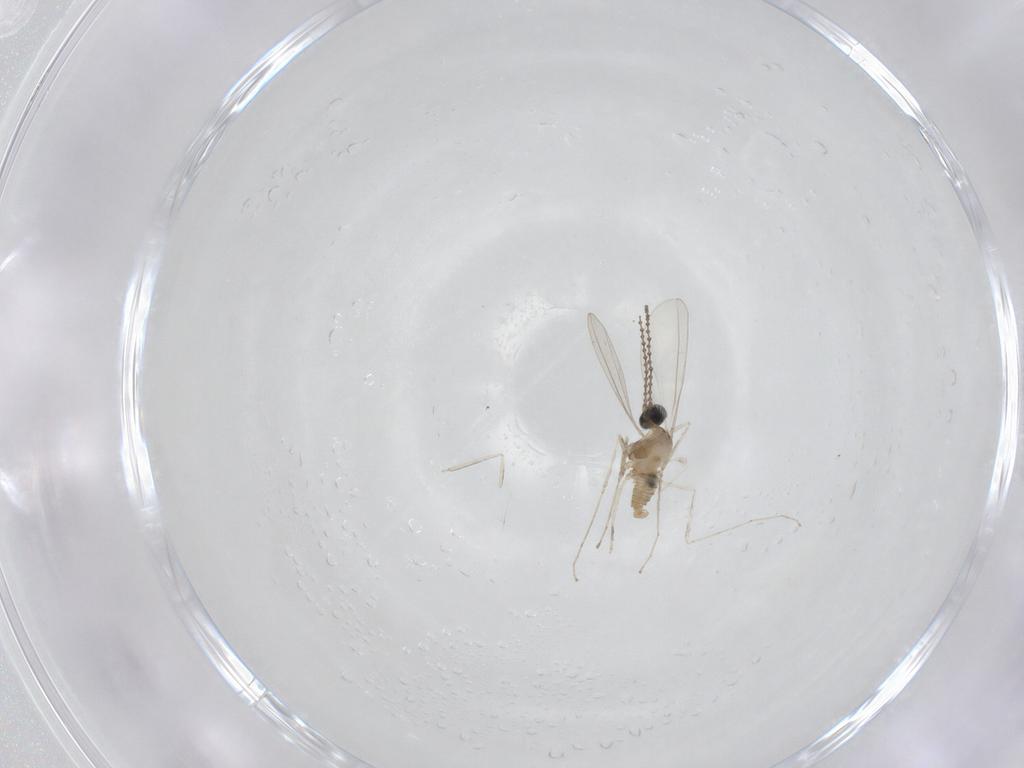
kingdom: Animalia
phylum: Arthropoda
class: Insecta
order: Diptera
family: Cecidomyiidae
